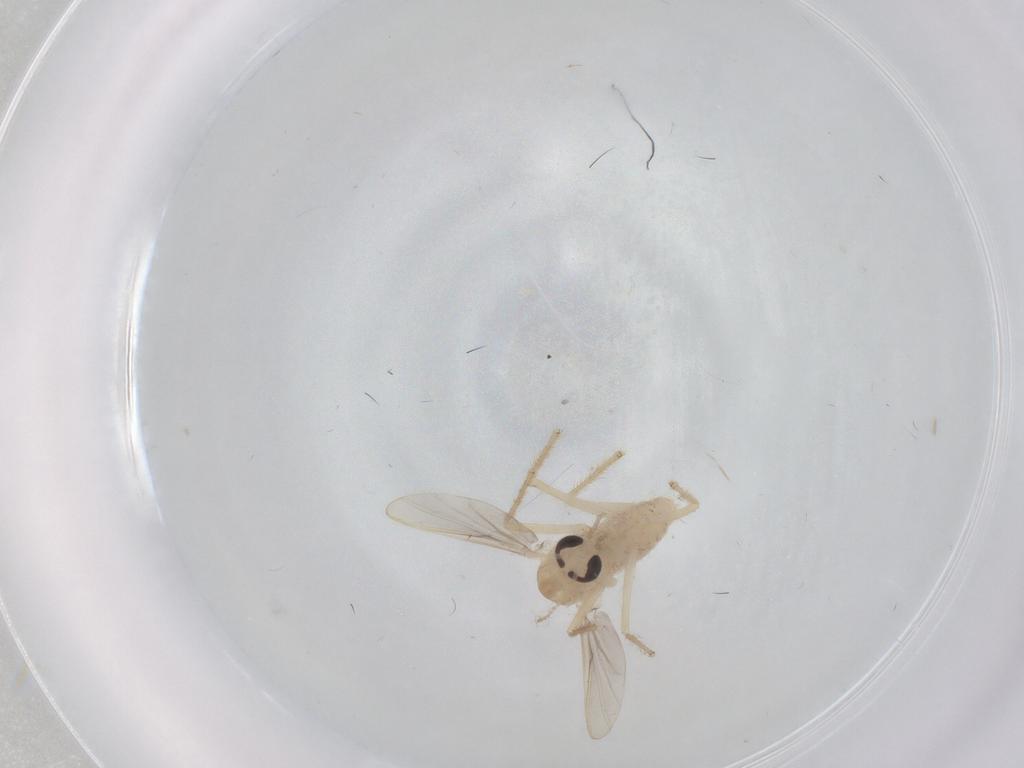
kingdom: Animalia
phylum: Arthropoda
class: Insecta
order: Diptera
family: Chironomidae
